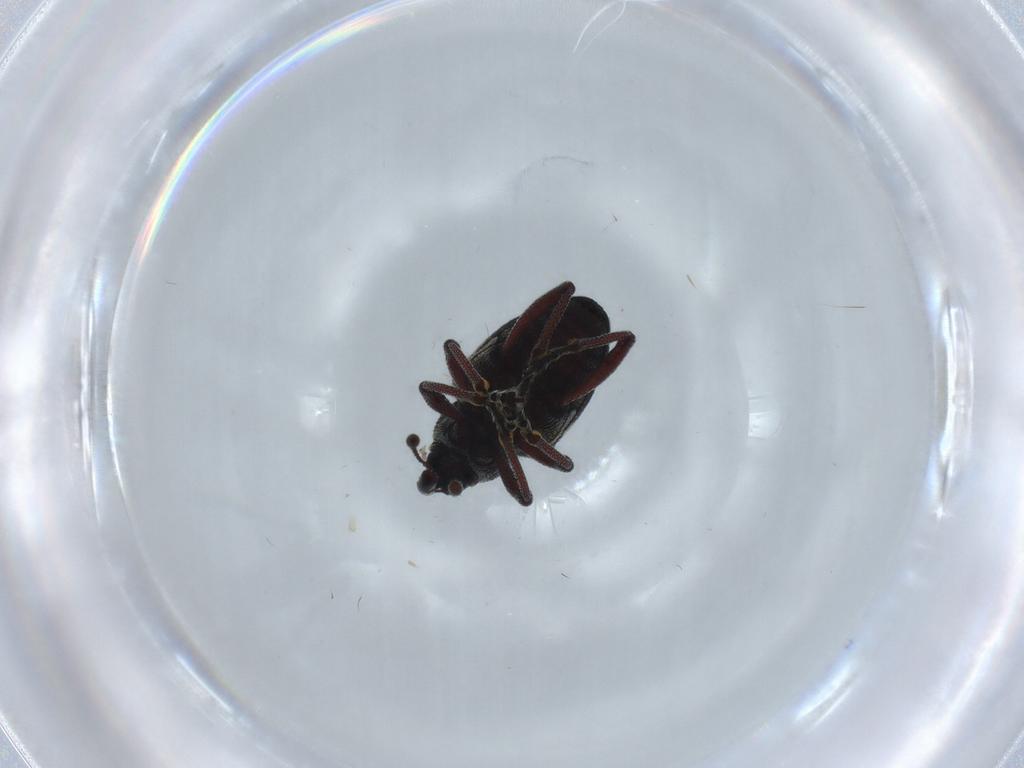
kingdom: Animalia
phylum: Arthropoda
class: Insecta
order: Coleoptera
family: Curculionidae
